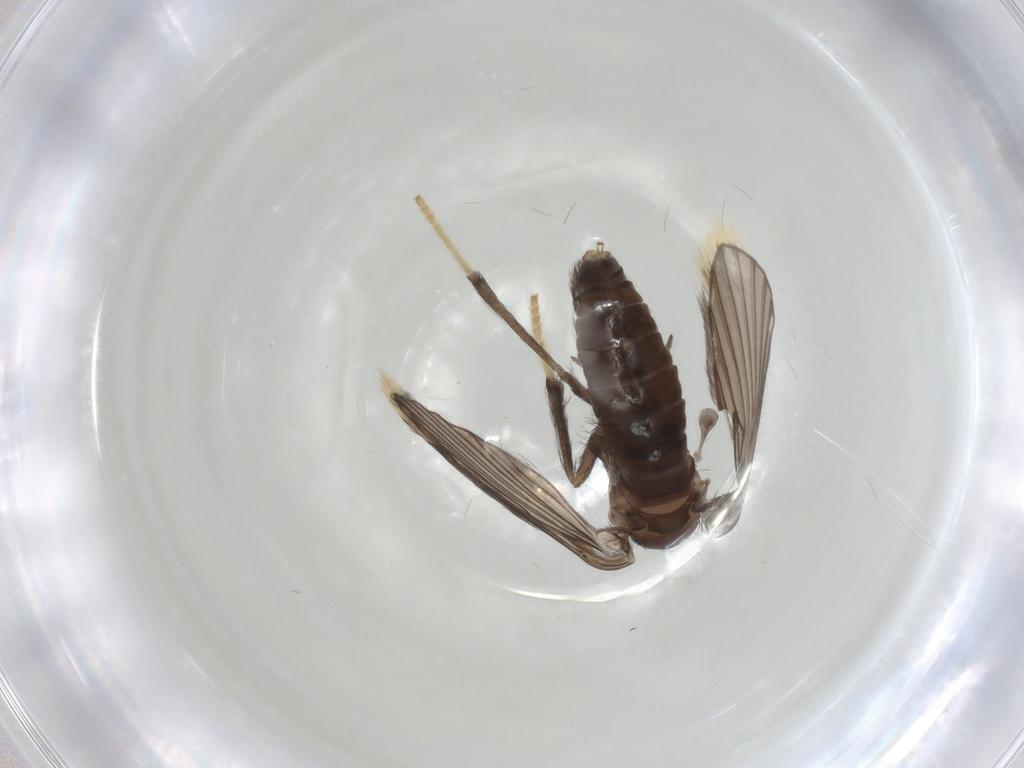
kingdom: Animalia
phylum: Arthropoda
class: Insecta
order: Diptera
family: Psychodidae
